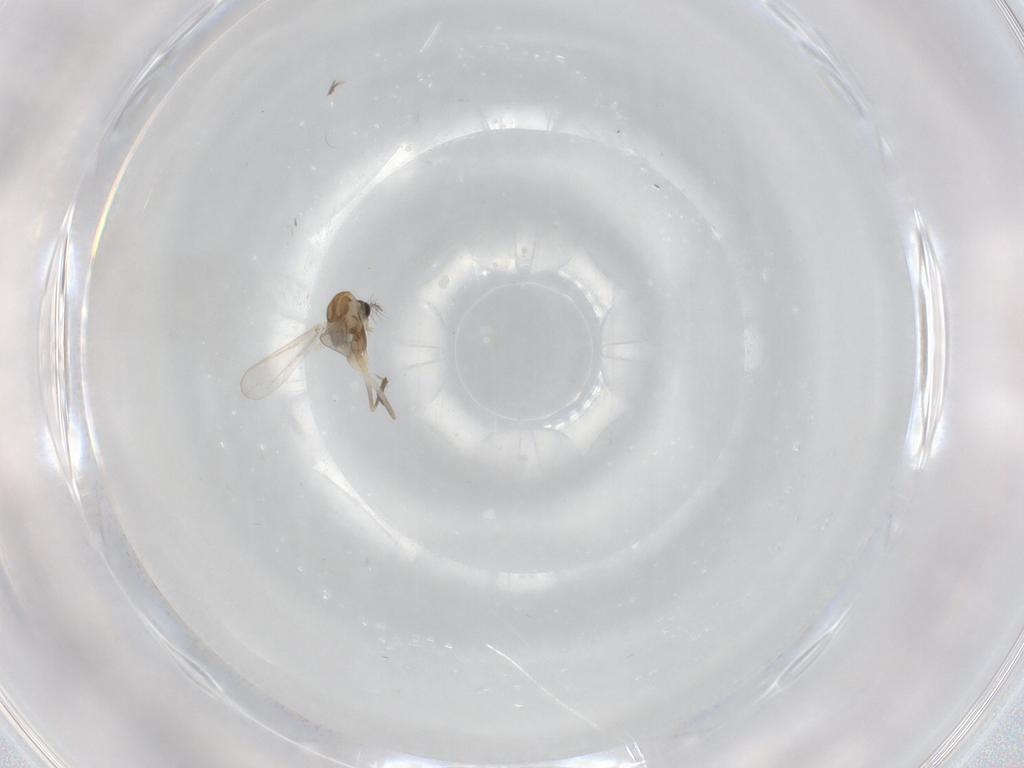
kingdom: Animalia
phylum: Arthropoda
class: Insecta
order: Diptera
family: Chironomidae
